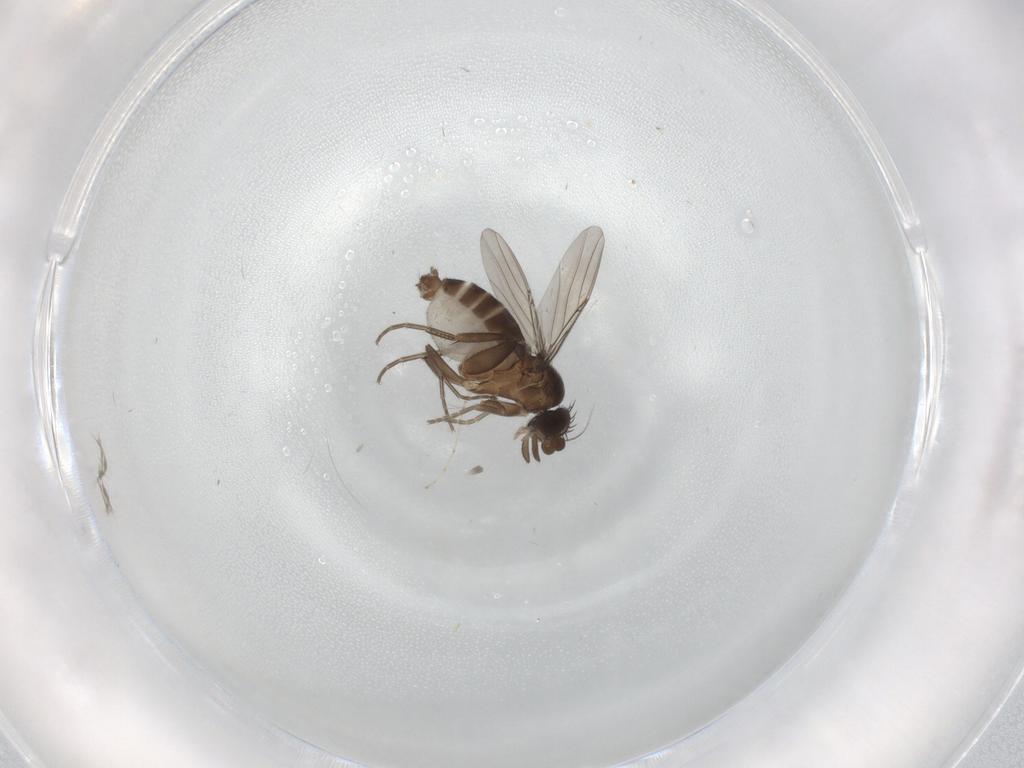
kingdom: Animalia
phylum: Arthropoda
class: Insecta
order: Diptera
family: Phoridae
